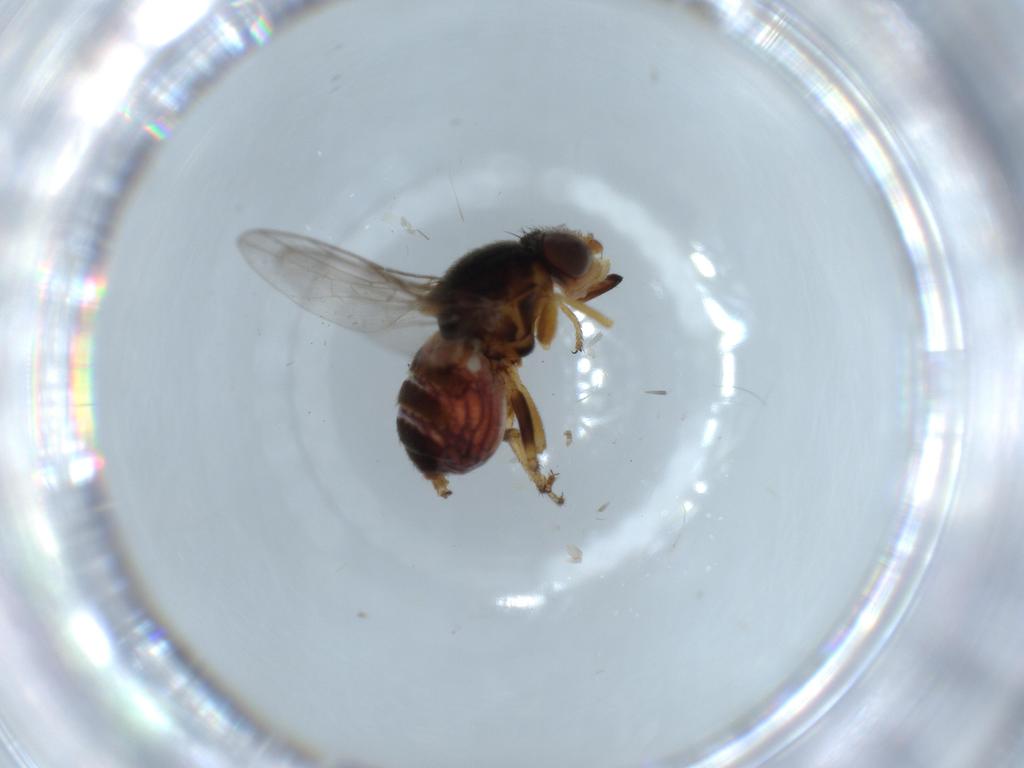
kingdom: Animalia
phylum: Arthropoda
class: Insecta
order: Diptera
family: Chloropidae
